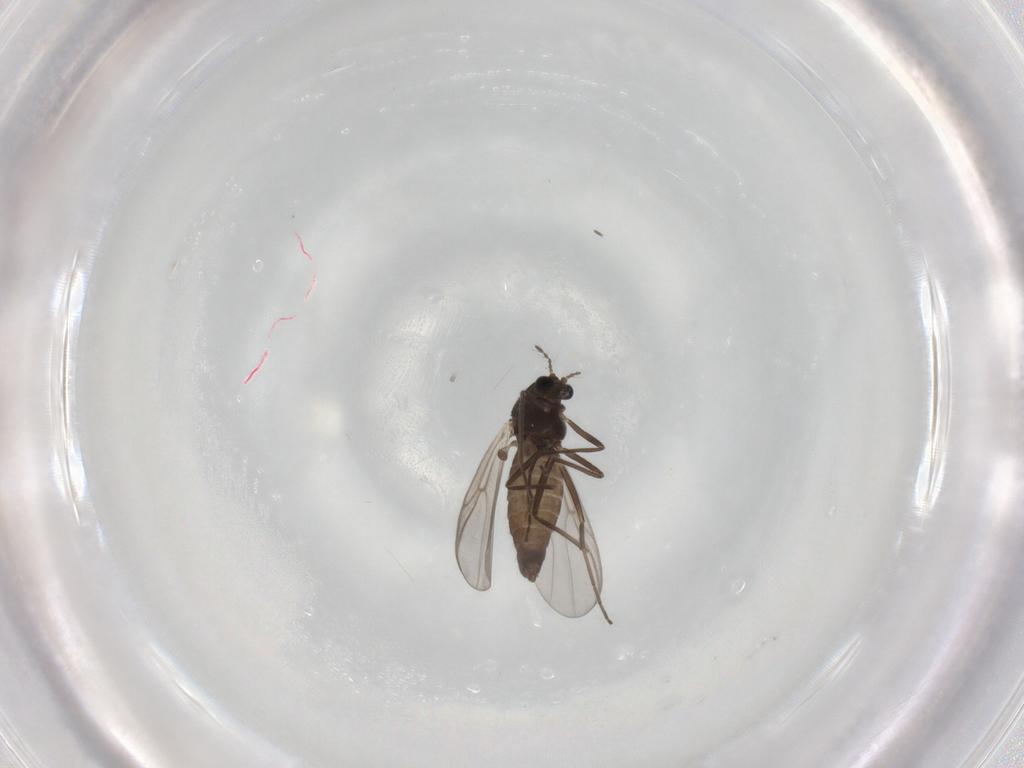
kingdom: Animalia
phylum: Arthropoda
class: Insecta
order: Diptera
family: Chironomidae
